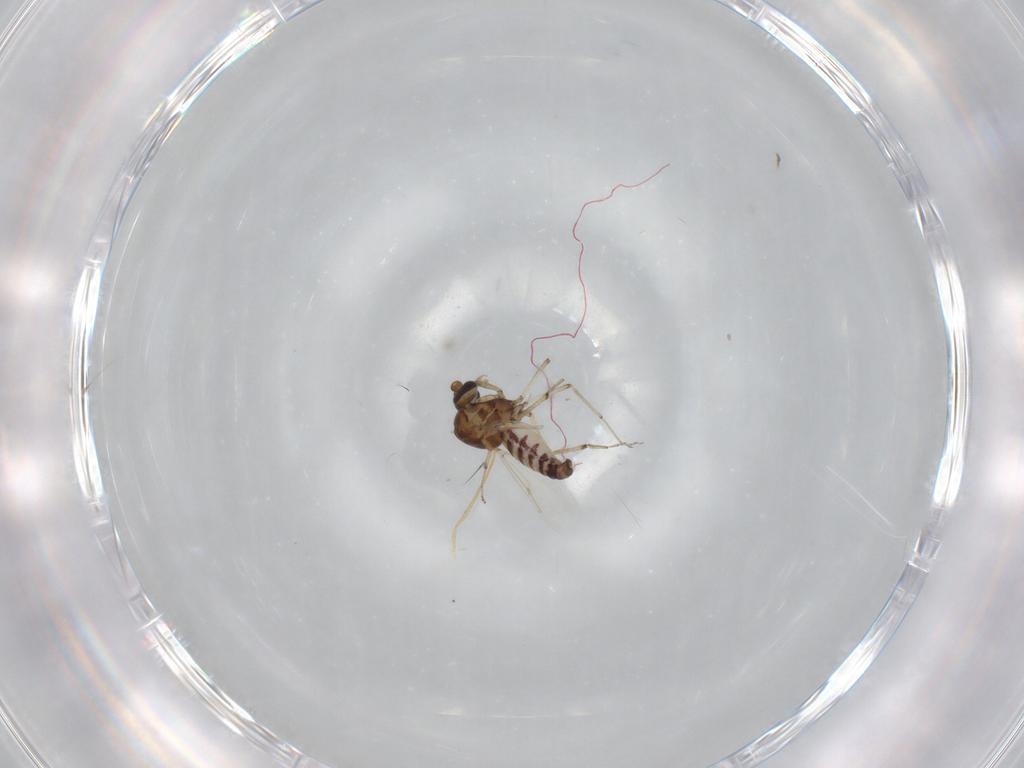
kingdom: Animalia
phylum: Arthropoda
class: Insecta
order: Diptera
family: Ceratopogonidae
